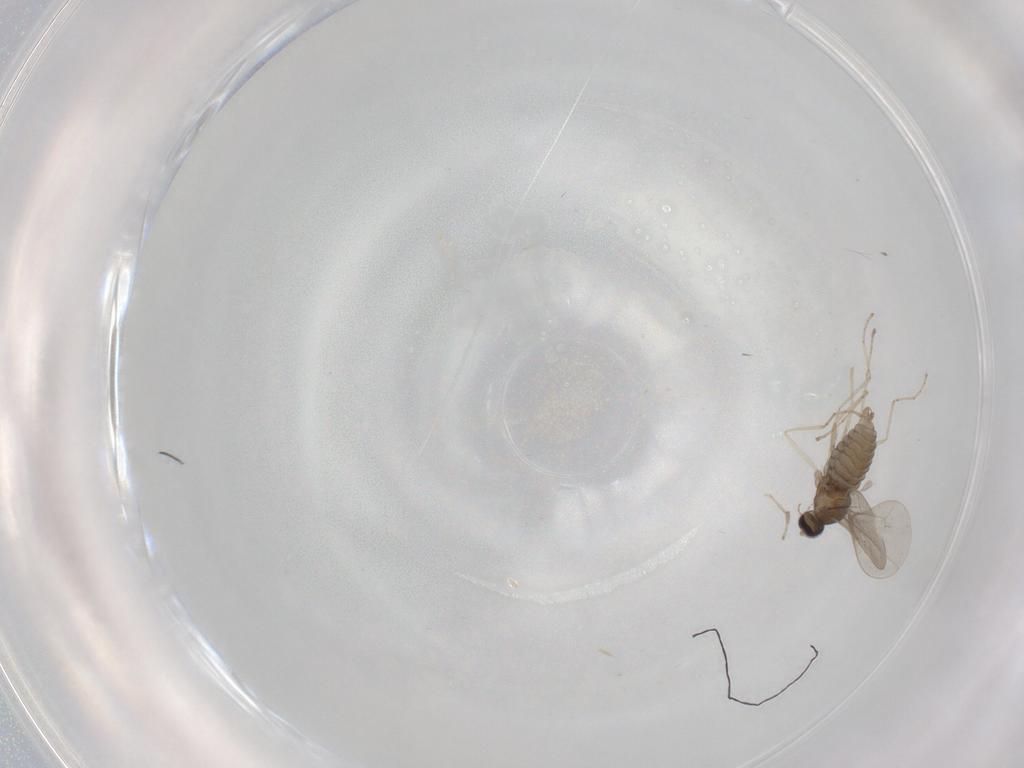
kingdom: Animalia
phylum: Arthropoda
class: Insecta
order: Diptera
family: Psychodidae
